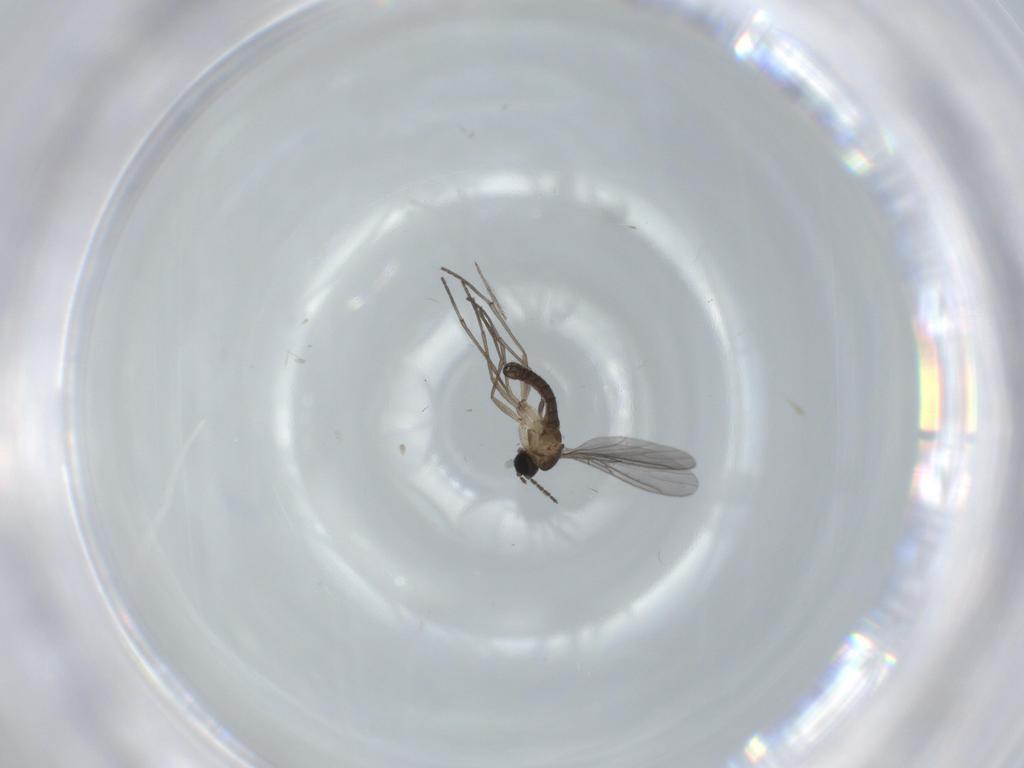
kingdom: Animalia
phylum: Arthropoda
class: Insecta
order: Diptera
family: Sciaridae
